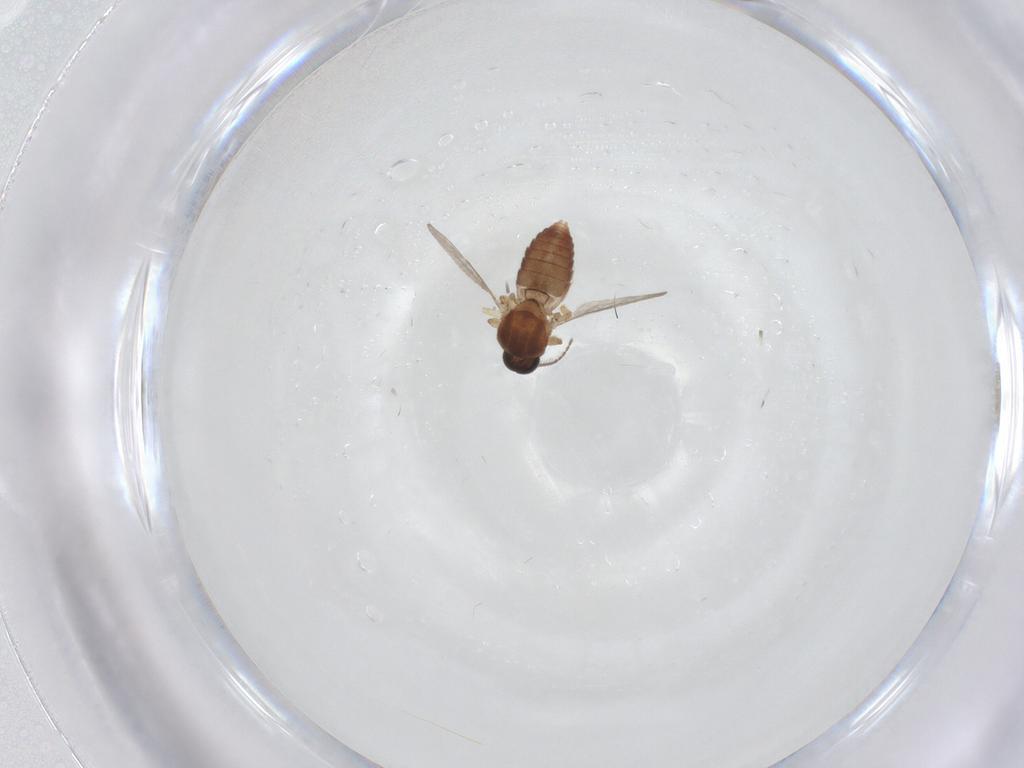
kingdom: Animalia
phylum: Arthropoda
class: Insecta
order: Diptera
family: Ceratopogonidae
